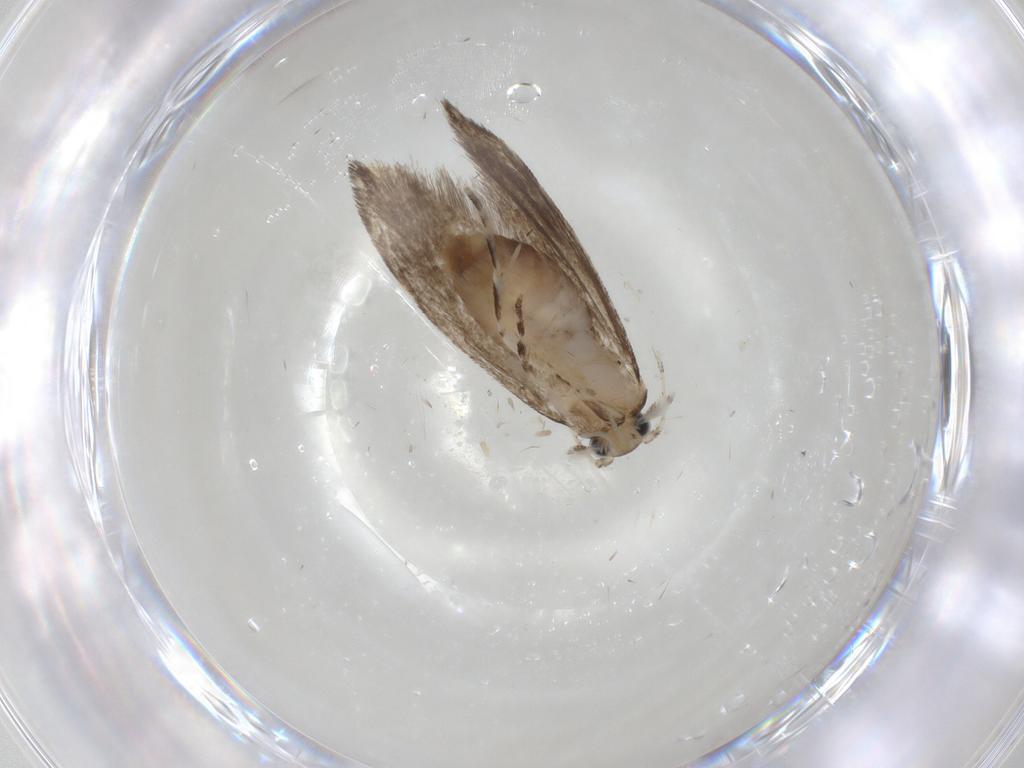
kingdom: Animalia
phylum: Arthropoda
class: Insecta
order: Lepidoptera
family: Tineidae
